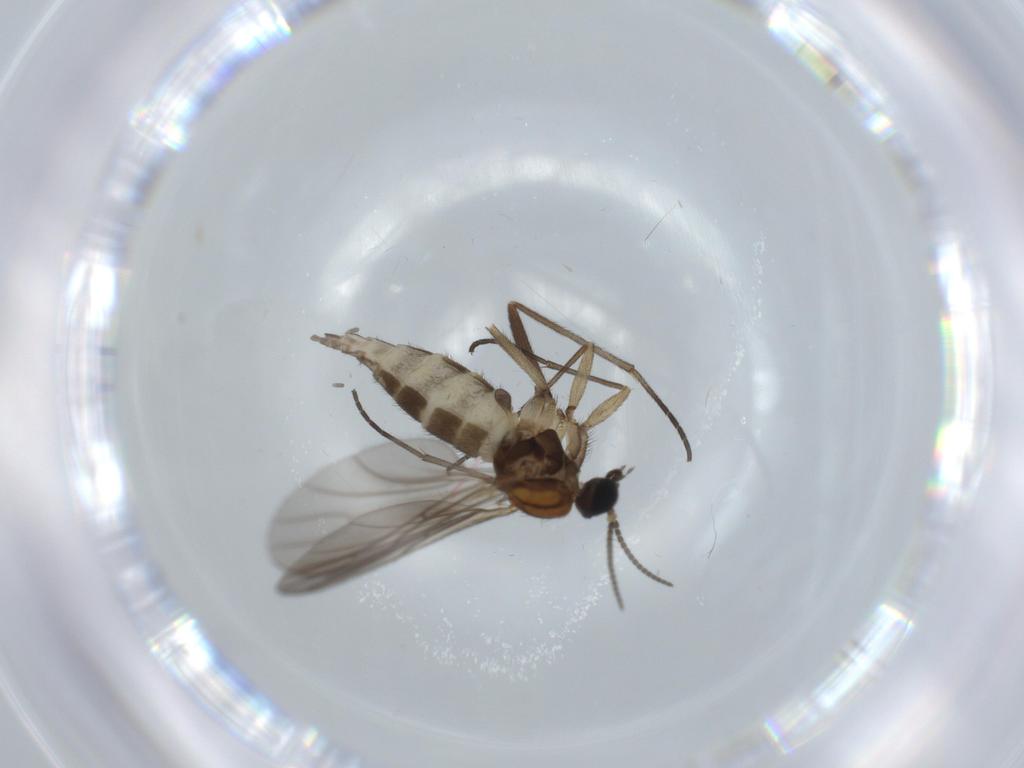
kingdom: Animalia
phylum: Arthropoda
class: Insecta
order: Diptera
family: Sciaridae
